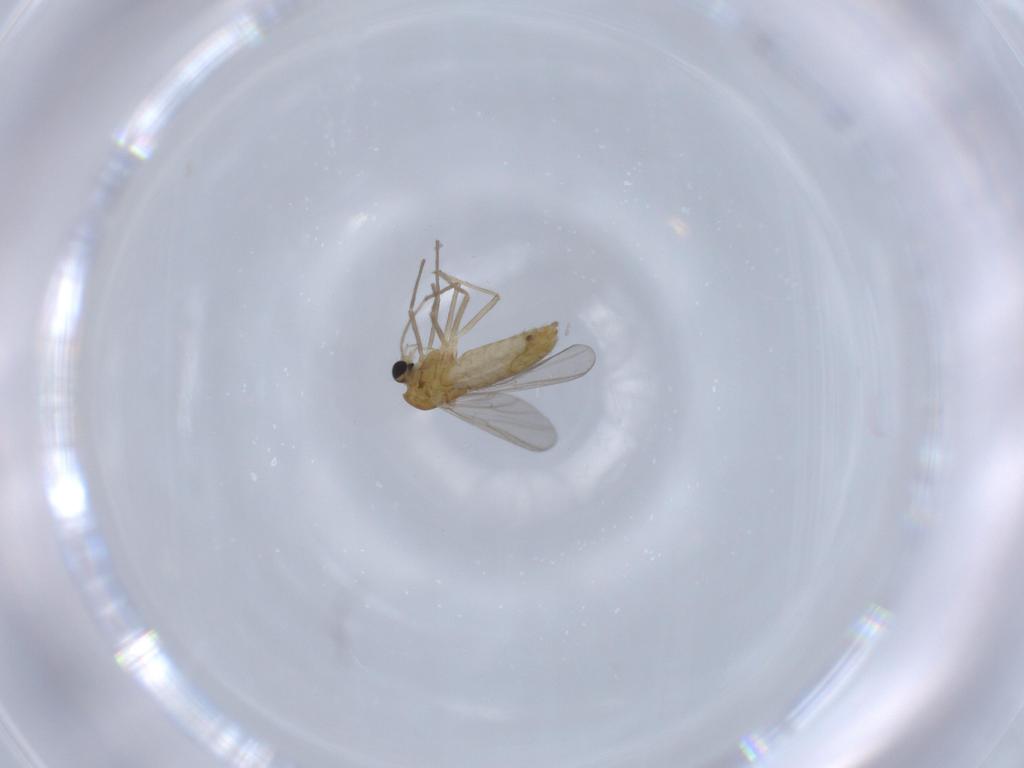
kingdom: Animalia
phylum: Arthropoda
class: Insecta
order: Diptera
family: Chironomidae
